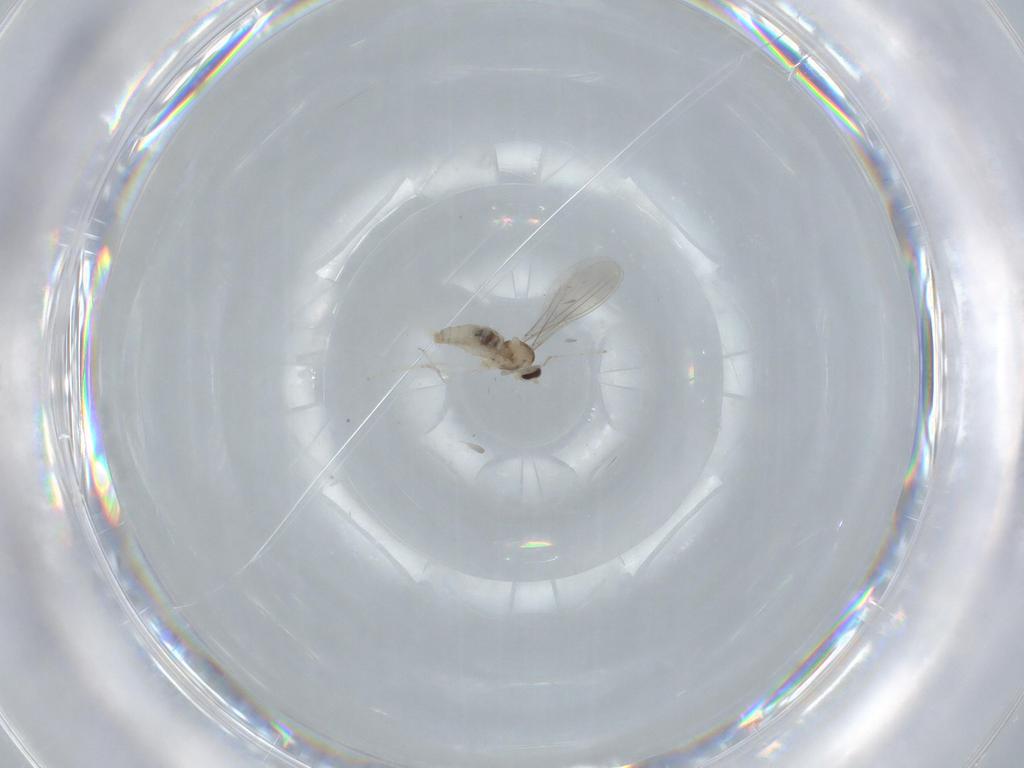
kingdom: Animalia
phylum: Arthropoda
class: Insecta
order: Diptera
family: Cecidomyiidae
